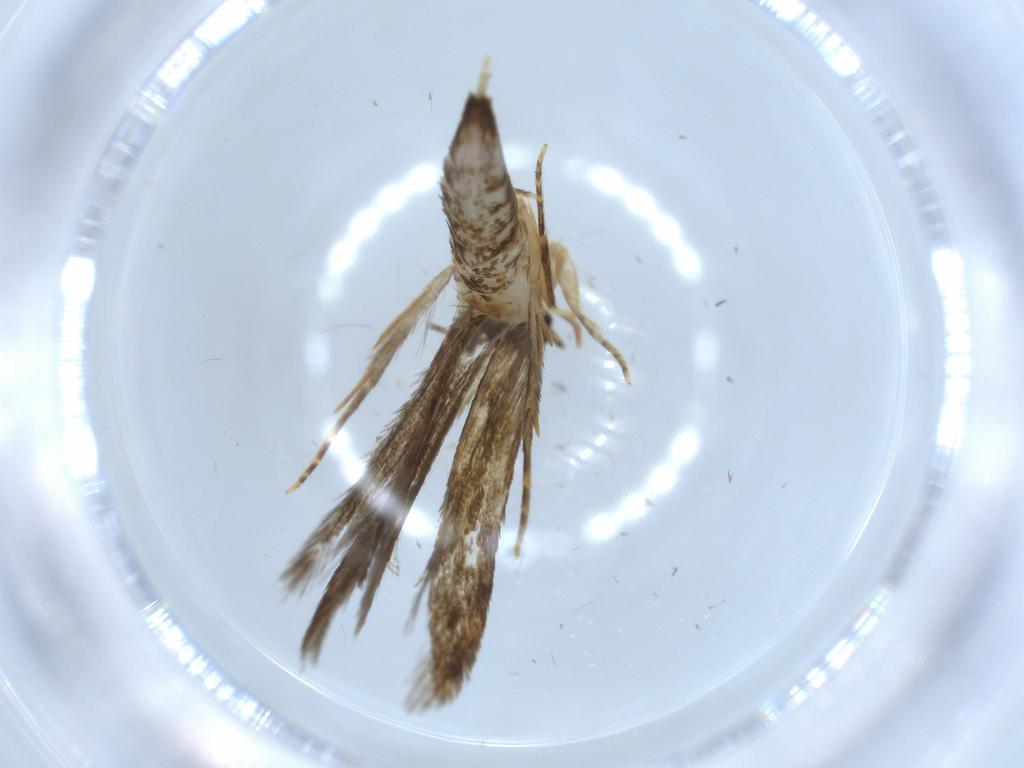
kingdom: Animalia
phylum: Arthropoda
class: Insecta
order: Lepidoptera
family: Tineidae
